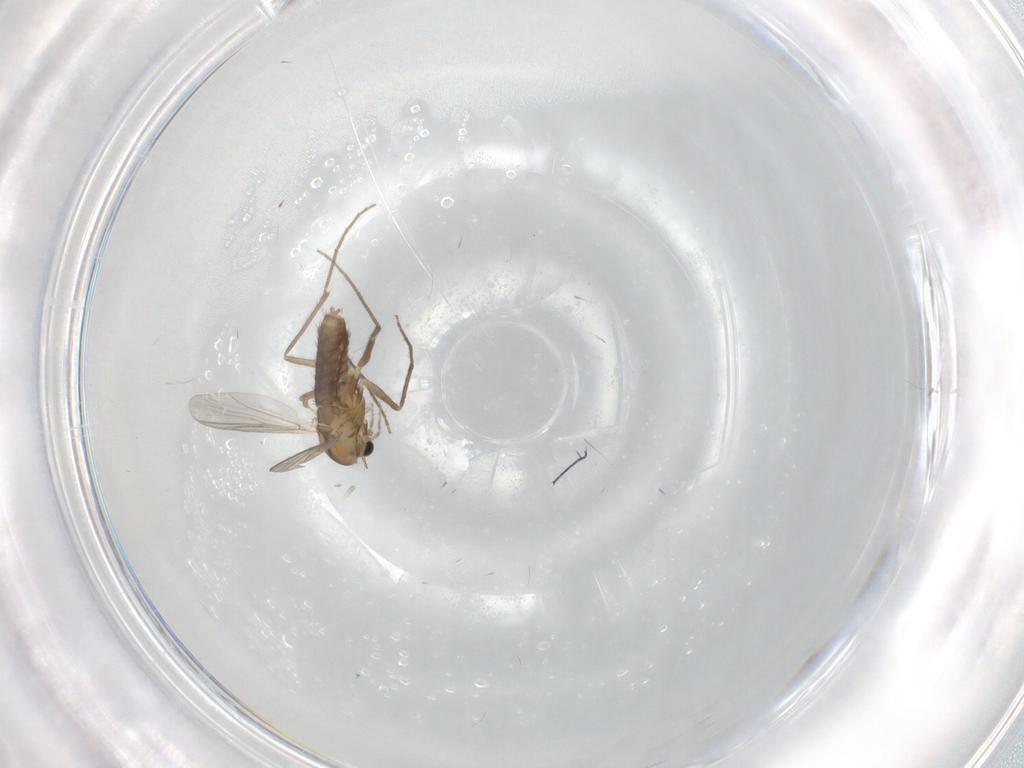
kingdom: Animalia
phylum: Arthropoda
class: Insecta
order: Diptera
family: Chironomidae
